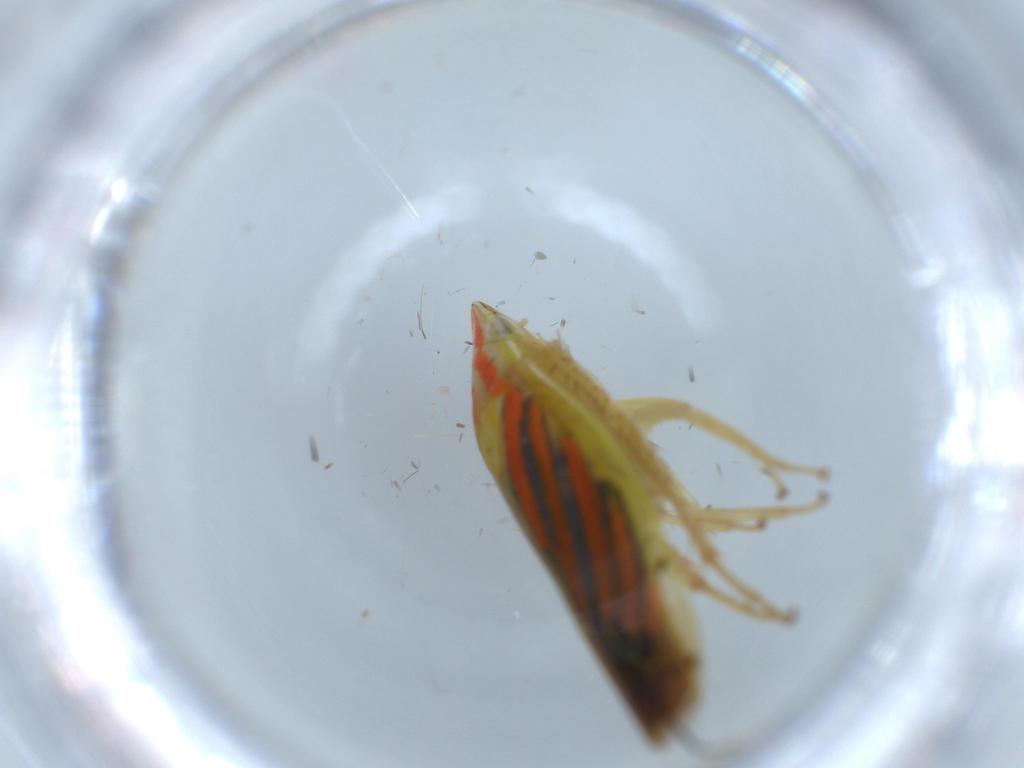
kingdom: Animalia
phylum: Arthropoda
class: Insecta
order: Hemiptera
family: Cicadellidae
